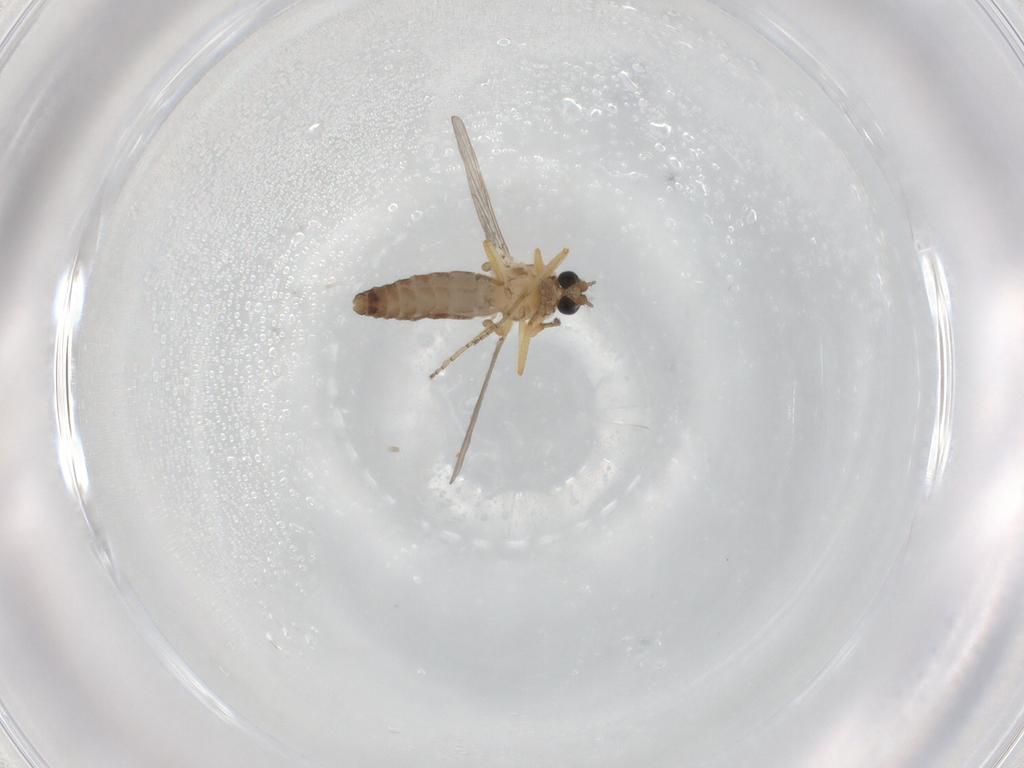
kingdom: Animalia
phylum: Arthropoda
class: Insecta
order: Diptera
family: Ceratopogonidae
